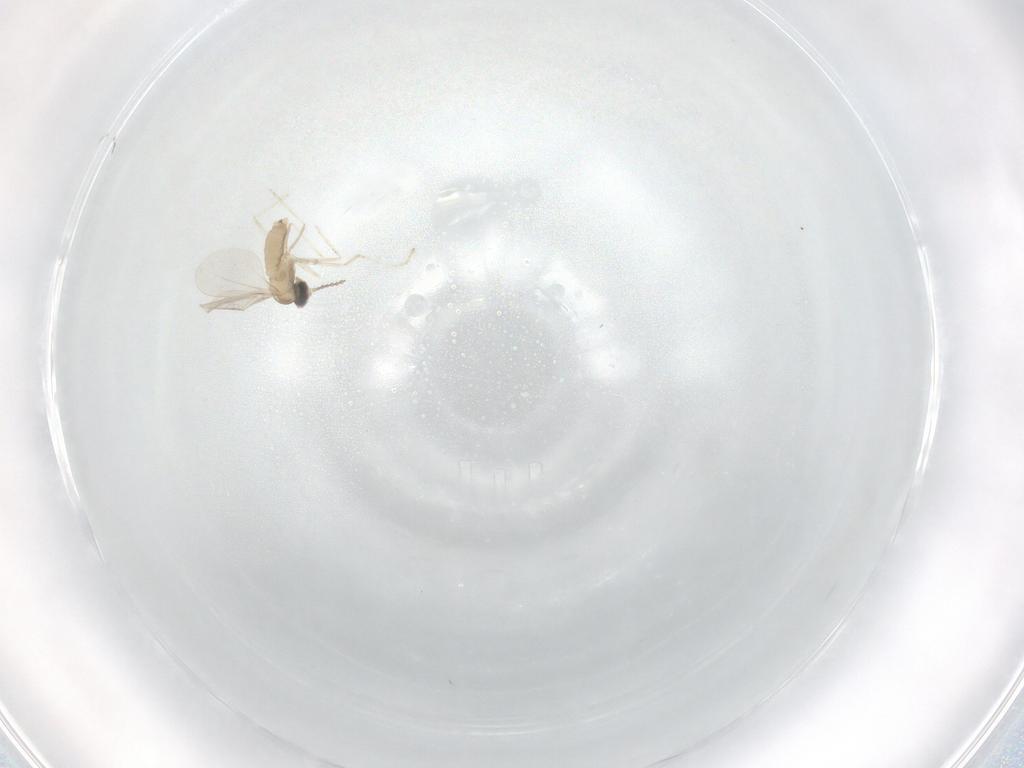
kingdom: Animalia
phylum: Arthropoda
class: Insecta
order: Diptera
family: Cecidomyiidae
